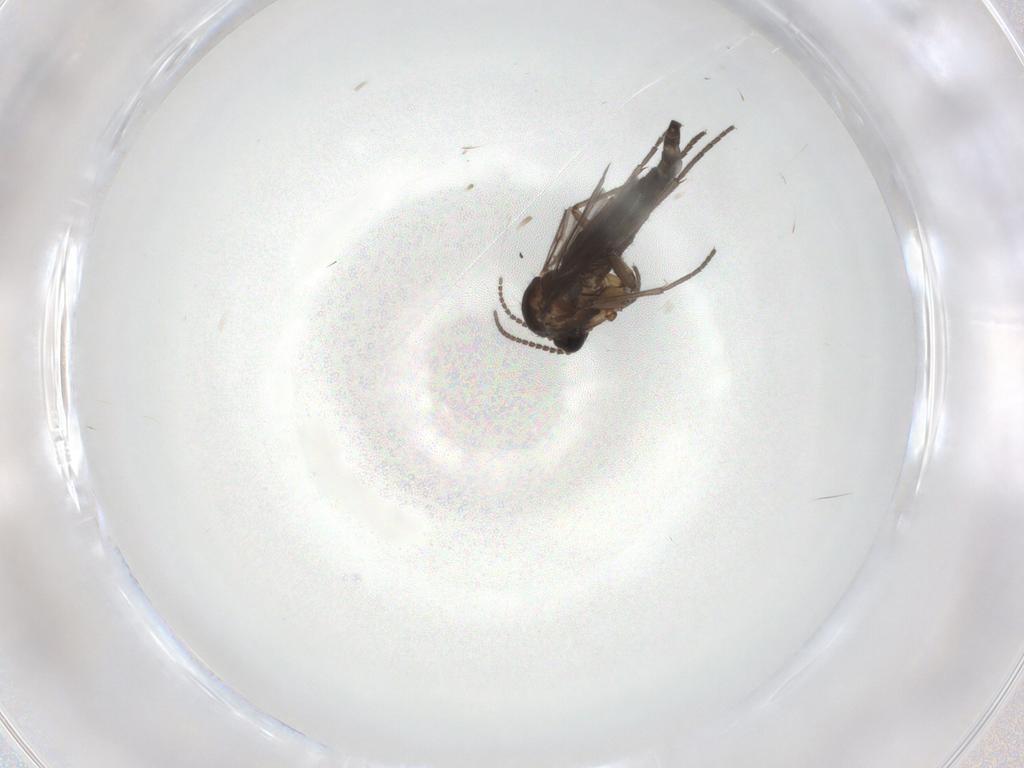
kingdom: Animalia
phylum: Arthropoda
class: Insecta
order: Diptera
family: Sciaridae
